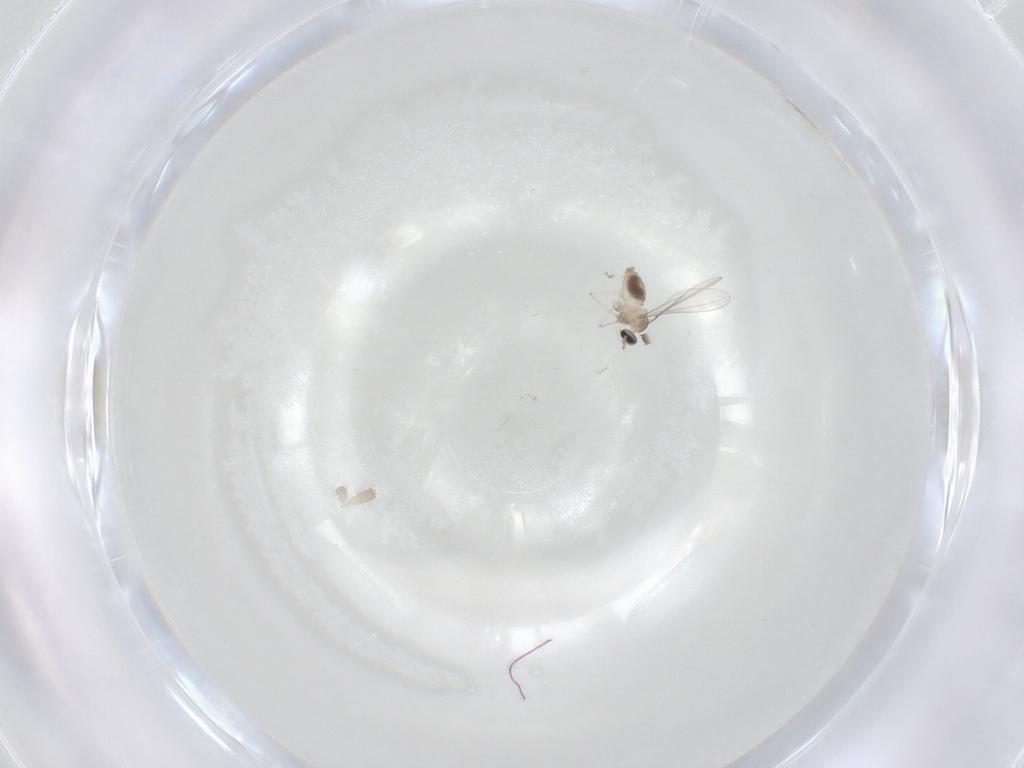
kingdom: Animalia
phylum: Arthropoda
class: Insecta
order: Diptera
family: Cecidomyiidae
